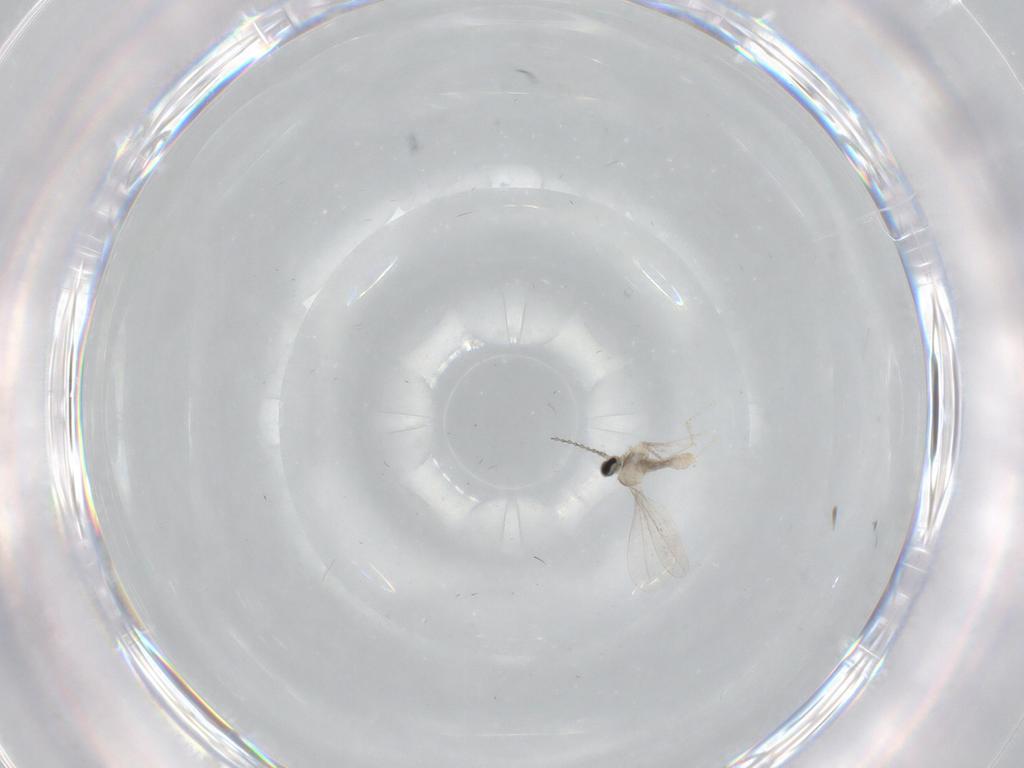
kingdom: Animalia
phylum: Arthropoda
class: Insecta
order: Diptera
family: Cecidomyiidae
